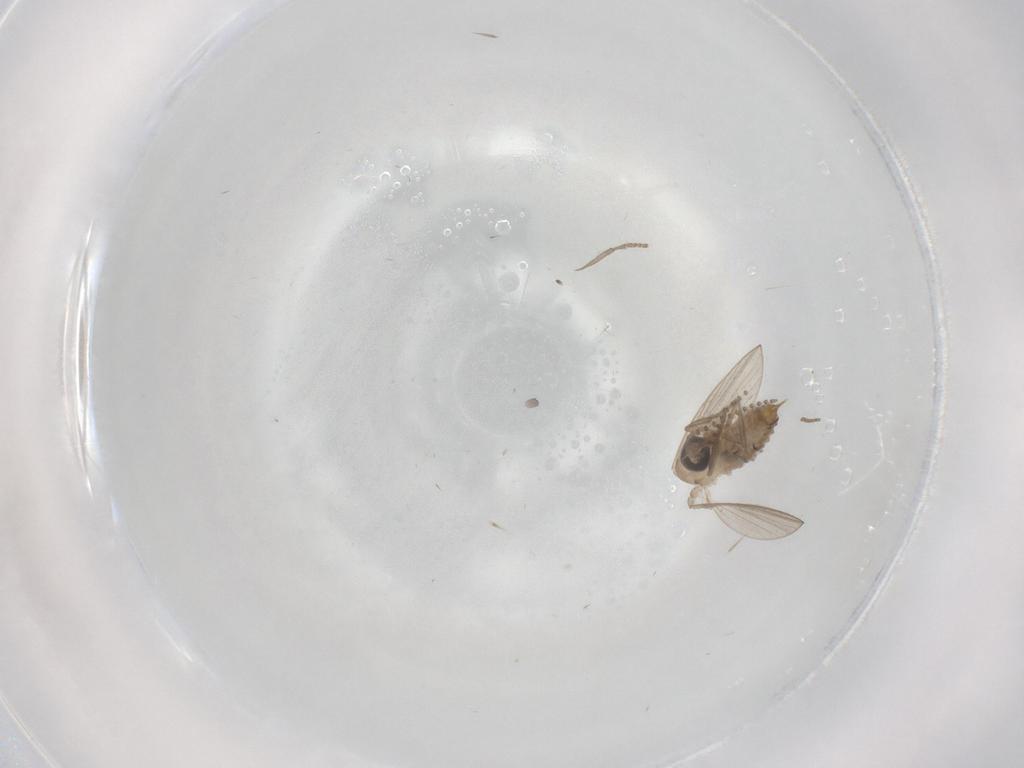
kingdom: Animalia
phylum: Arthropoda
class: Insecta
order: Diptera
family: Psychodidae
